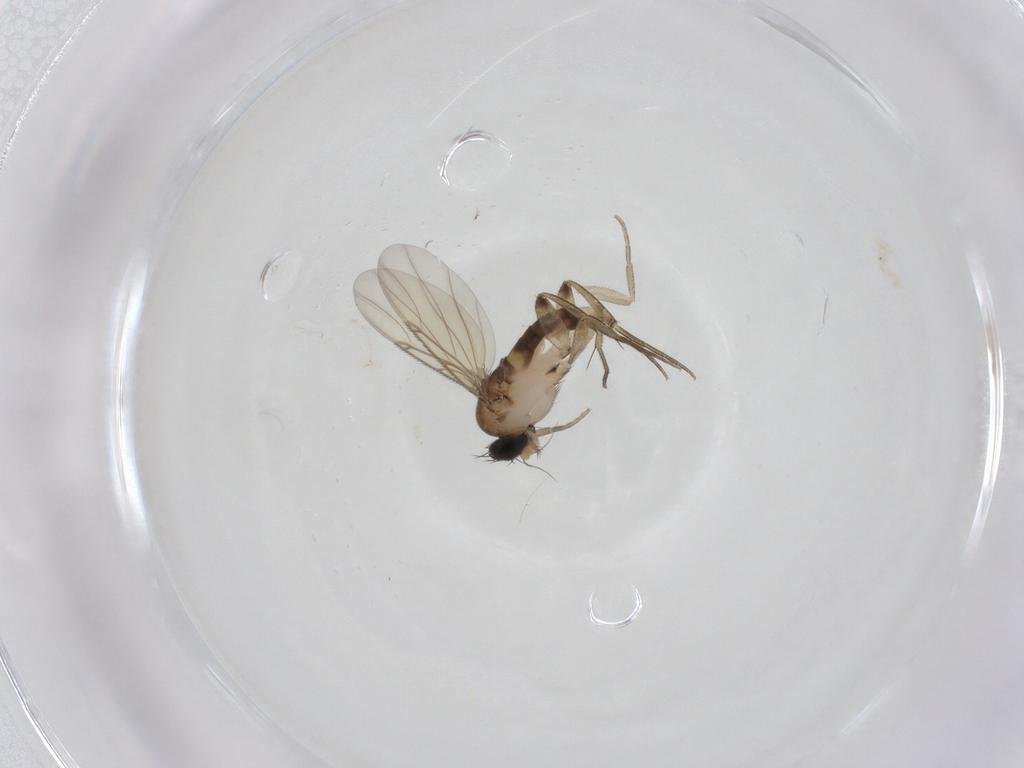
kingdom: Animalia
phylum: Arthropoda
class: Insecta
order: Diptera
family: Phoridae
